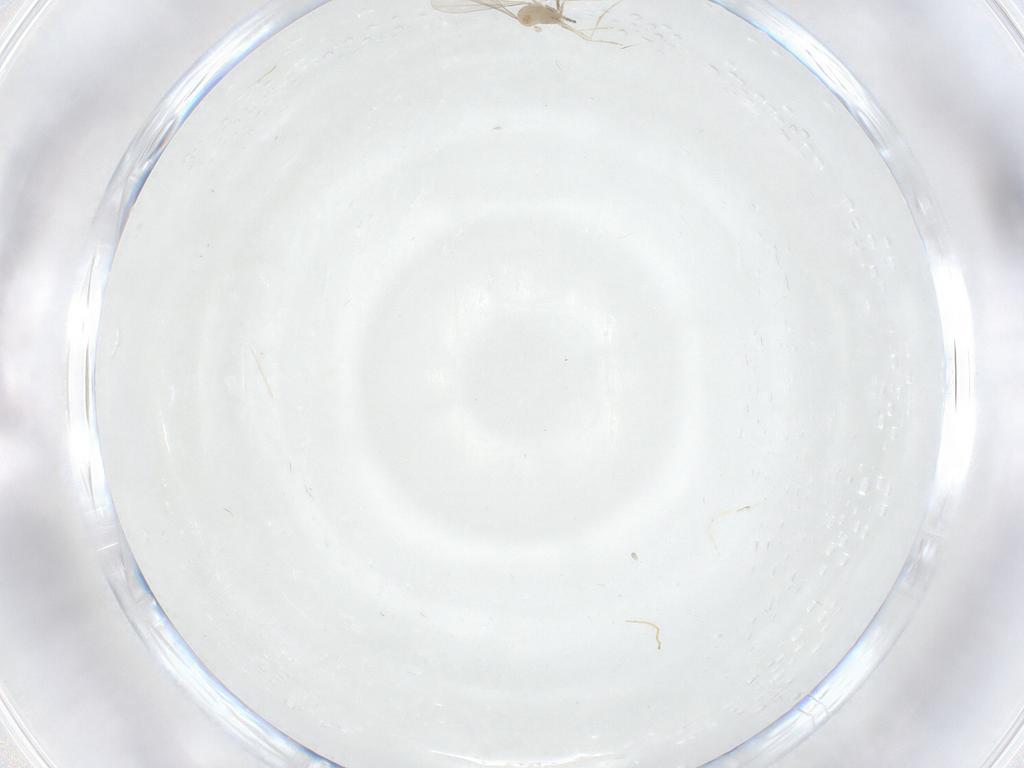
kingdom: Animalia
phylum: Arthropoda
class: Insecta
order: Diptera
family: Cecidomyiidae
